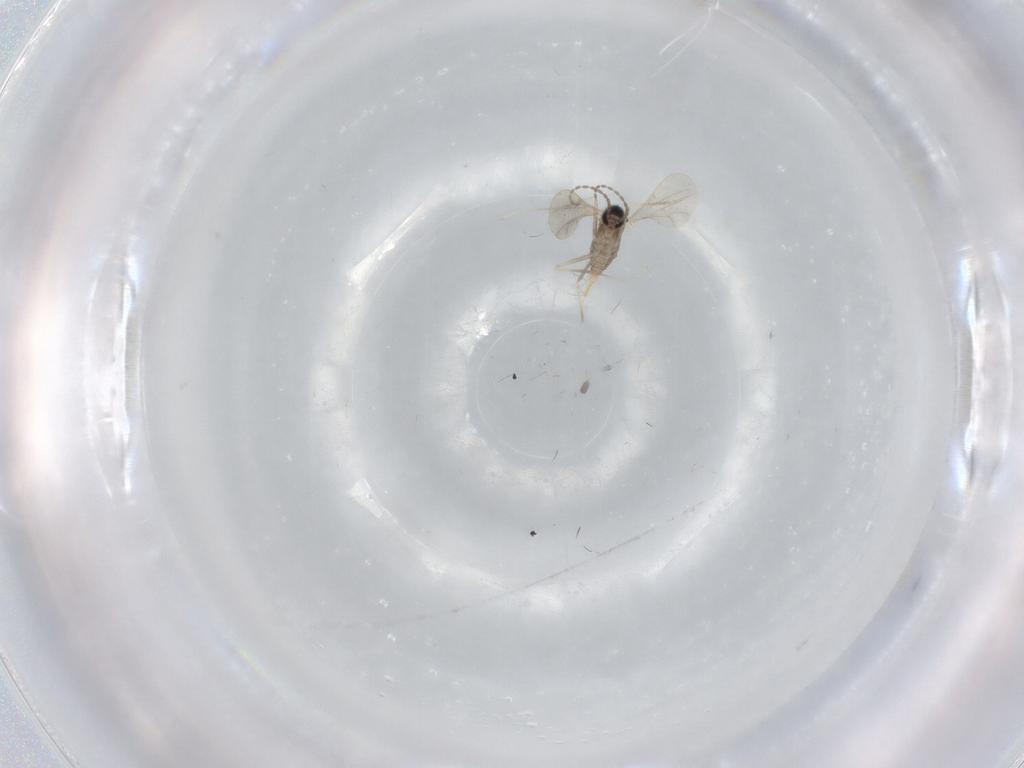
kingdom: Animalia
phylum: Arthropoda
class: Insecta
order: Diptera
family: Cecidomyiidae
